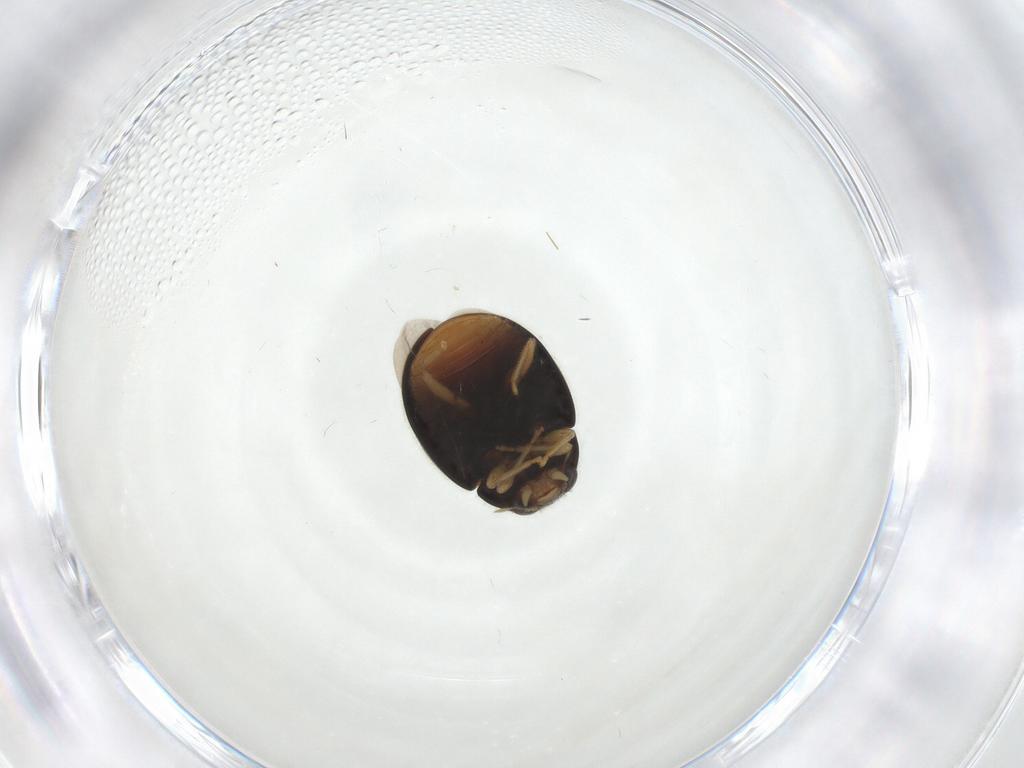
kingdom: Animalia
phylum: Arthropoda
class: Insecta
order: Coleoptera
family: Coccinellidae
